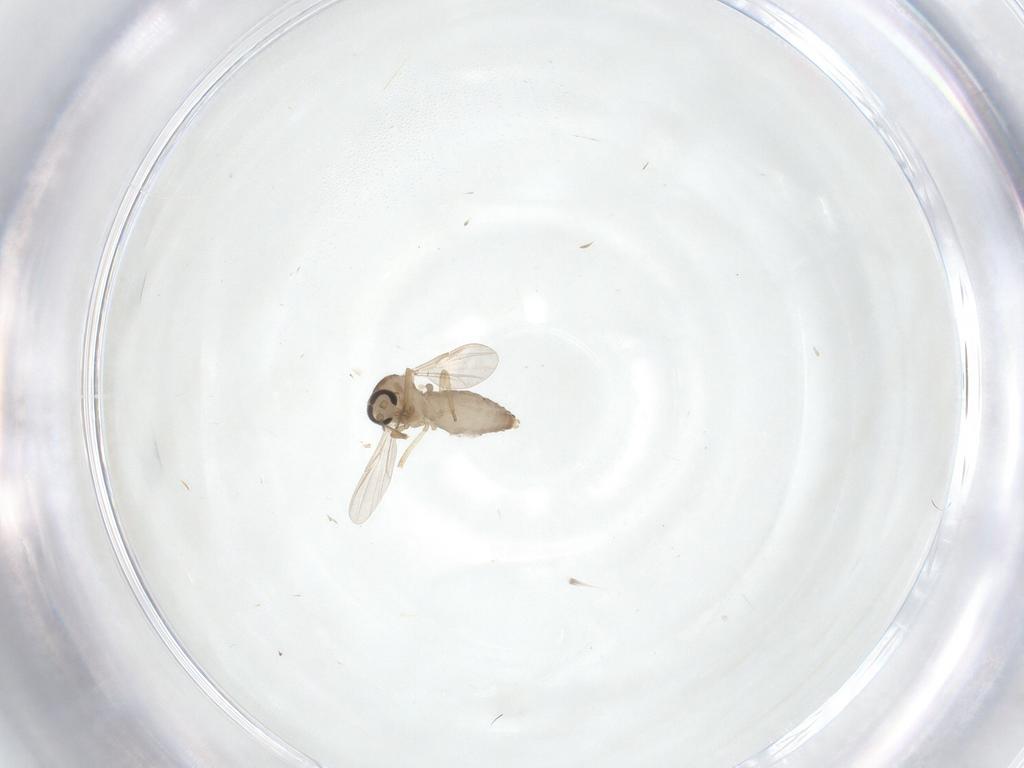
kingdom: Animalia
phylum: Arthropoda
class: Insecta
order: Diptera
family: Ceratopogonidae
